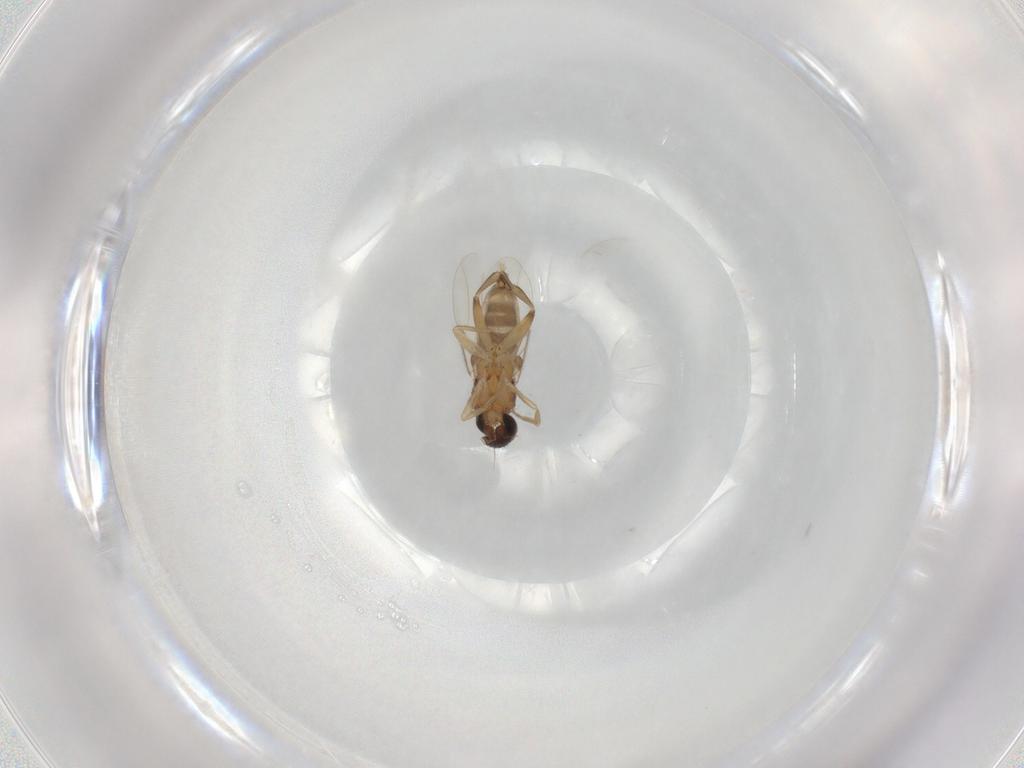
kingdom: Animalia
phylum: Arthropoda
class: Insecta
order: Diptera
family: Phoridae
